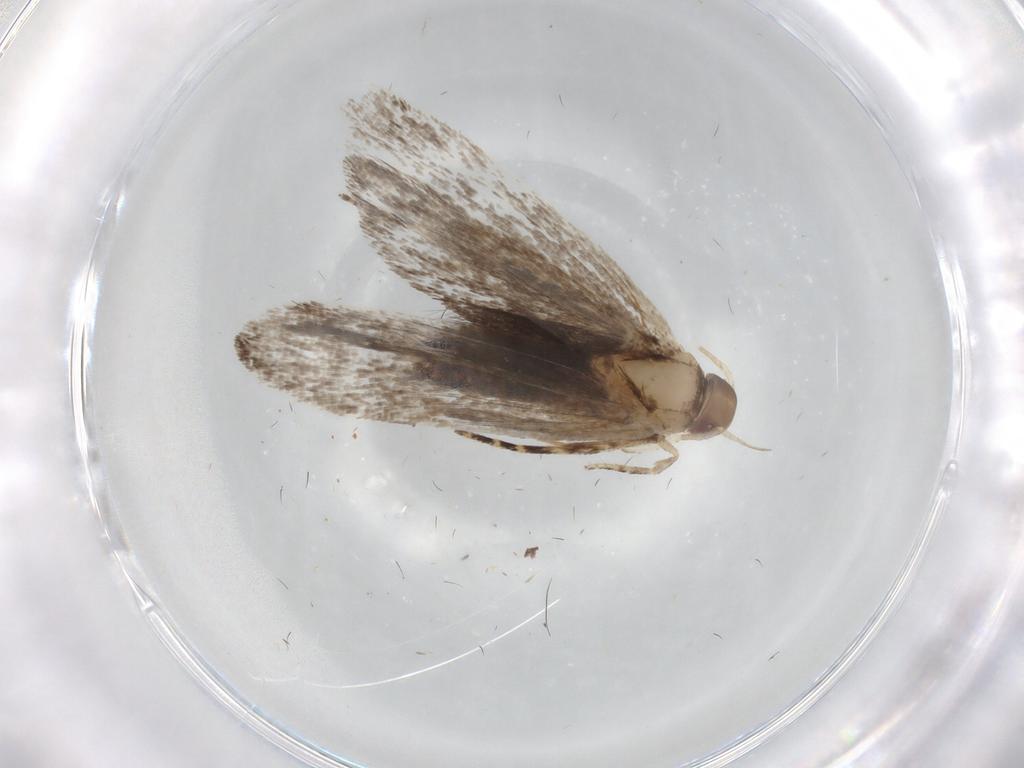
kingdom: Animalia
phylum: Arthropoda
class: Insecta
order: Lepidoptera
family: Gelechiidae
